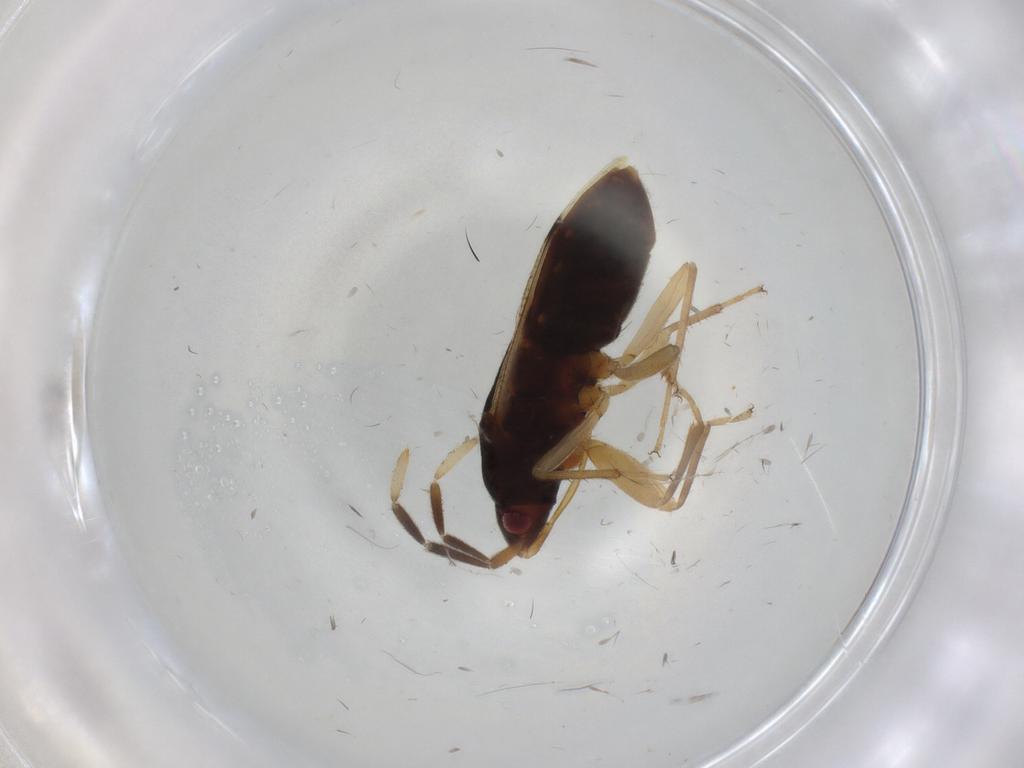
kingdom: Animalia
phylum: Arthropoda
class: Insecta
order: Hemiptera
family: Rhyparochromidae
